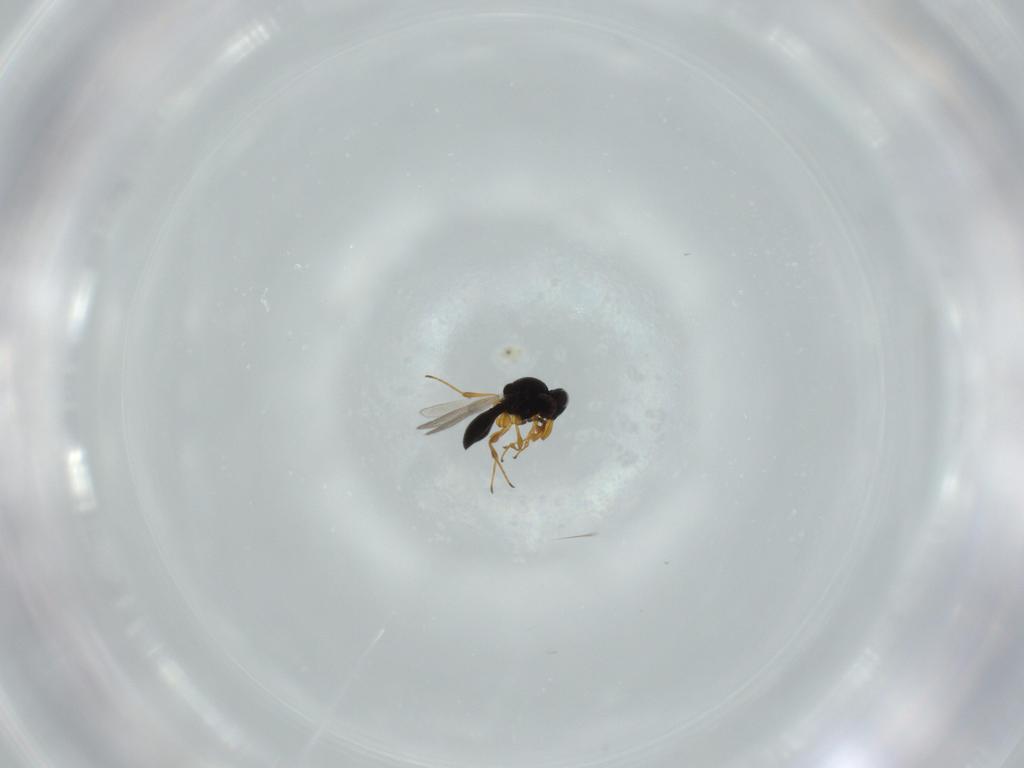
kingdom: Animalia
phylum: Arthropoda
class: Insecta
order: Hymenoptera
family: Platygastridae
